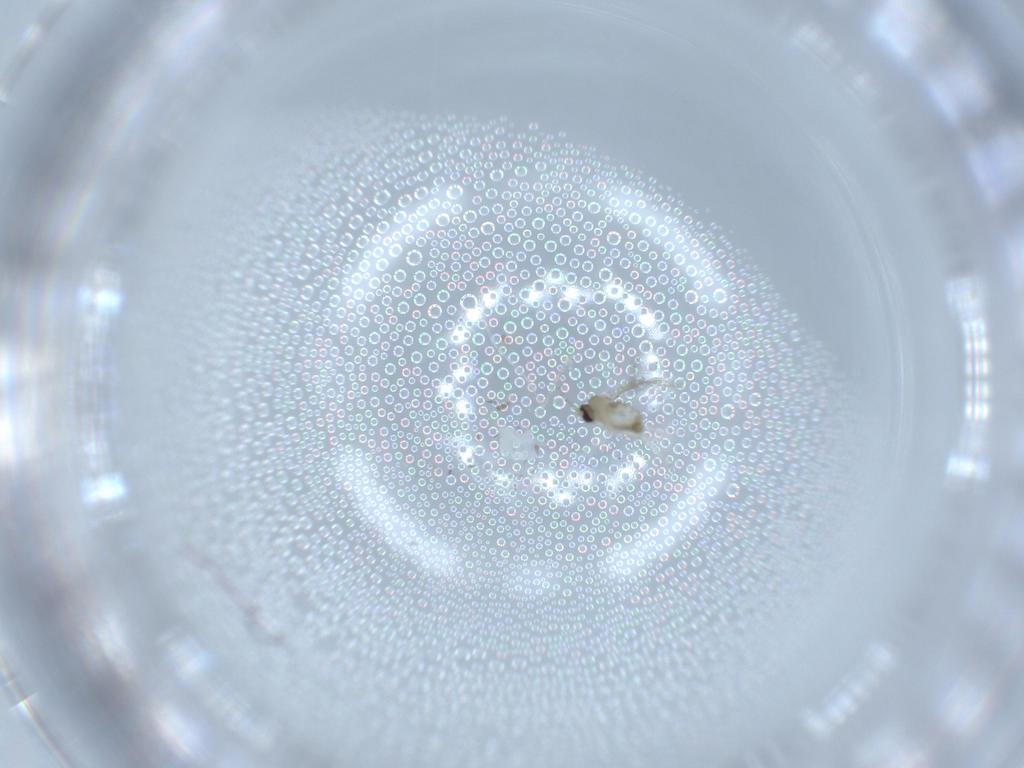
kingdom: Animalia
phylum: Arthropoda
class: Insecta
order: Diptera
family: Cecidomyiidae
